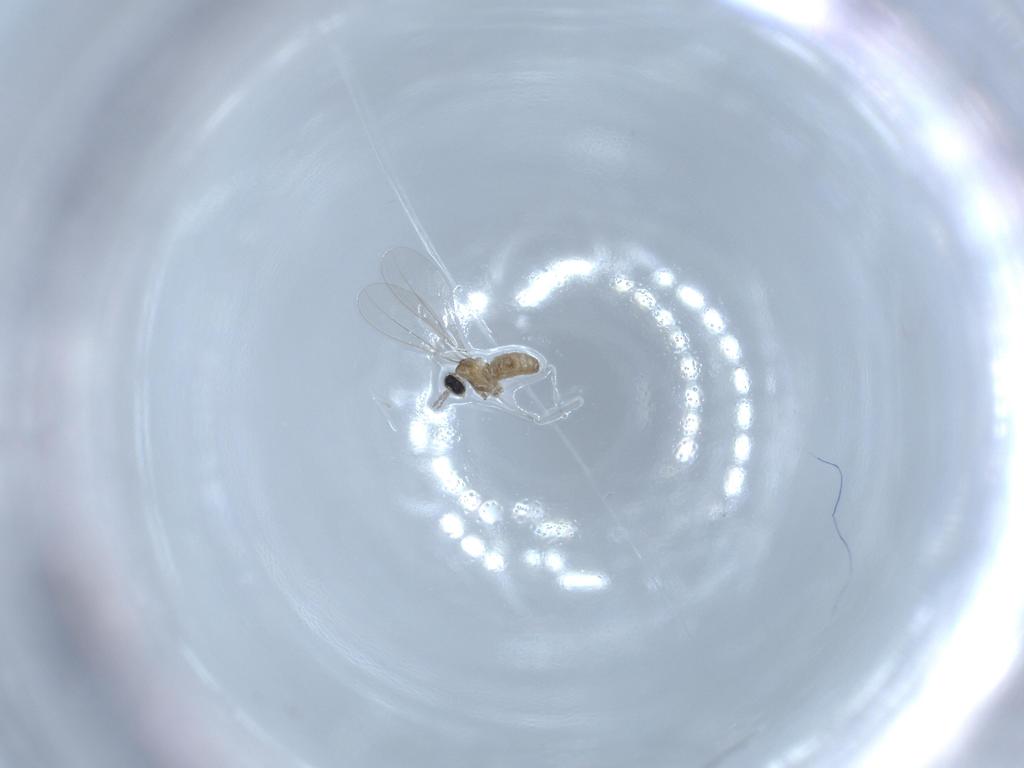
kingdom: Animalia
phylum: Arthropoda
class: Insecta
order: Diptera
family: Cecidomyiidae
